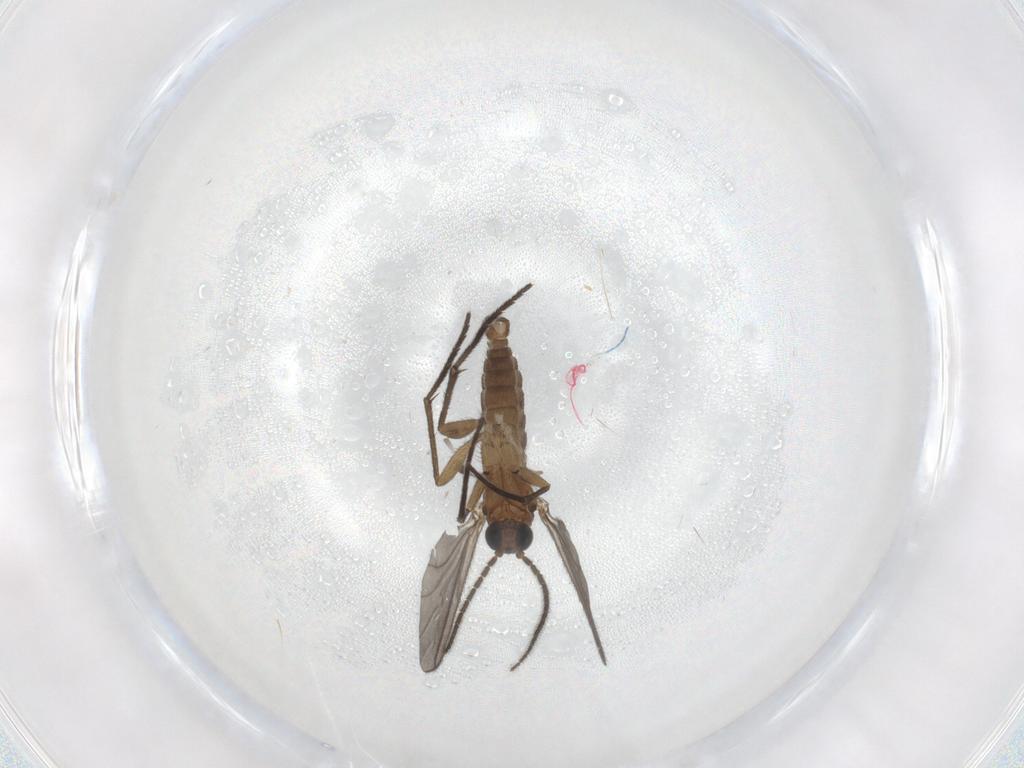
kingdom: Animalia
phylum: Arthropoda
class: Insecta
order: Diptera
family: Sciaridae
